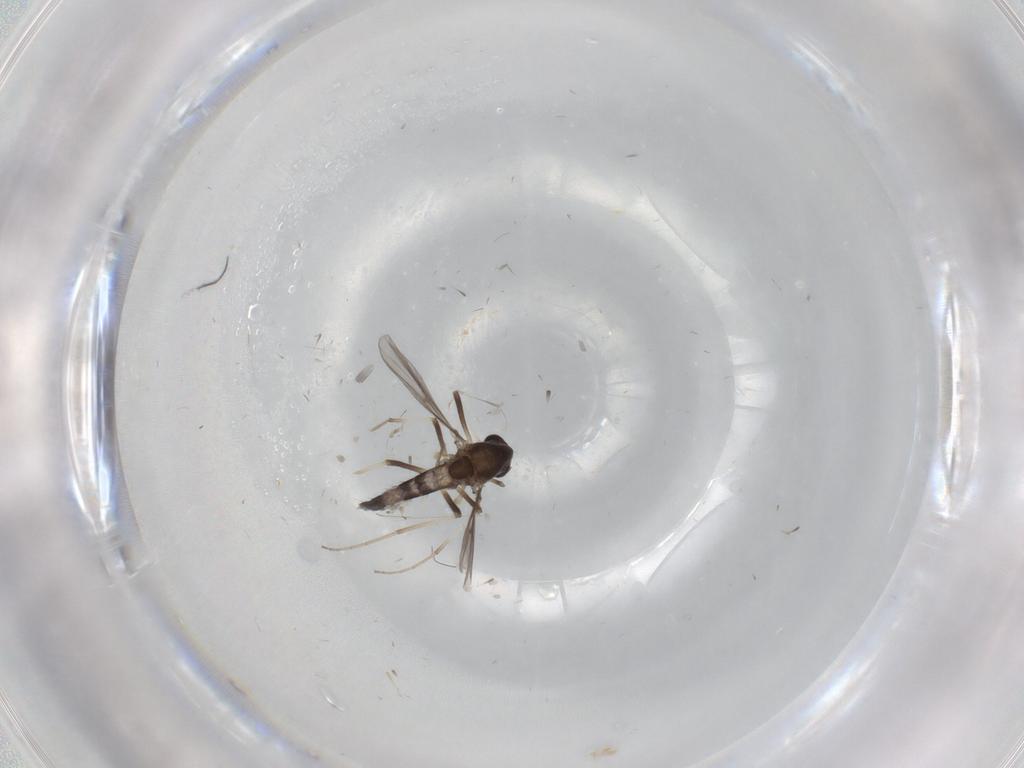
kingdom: Animalia
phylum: Arthropoda
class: Insecta
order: Diptera
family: Chironomidae
